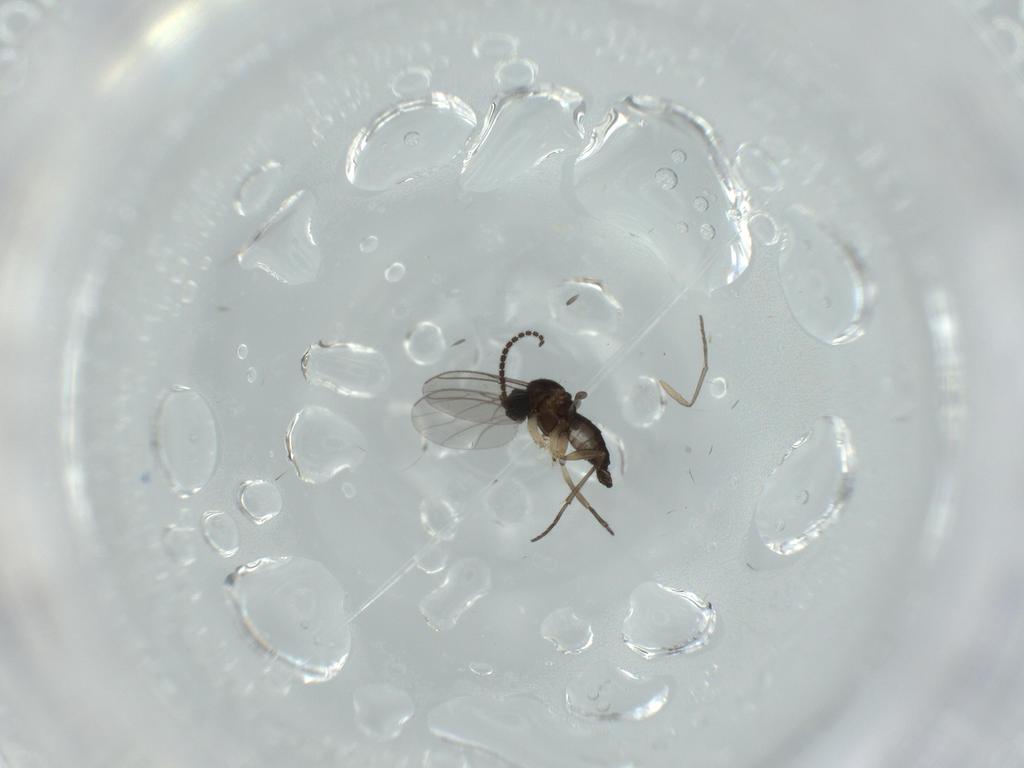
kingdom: Animalia
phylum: Arthropoda
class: Insecta
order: Diptera
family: Sciaridae
